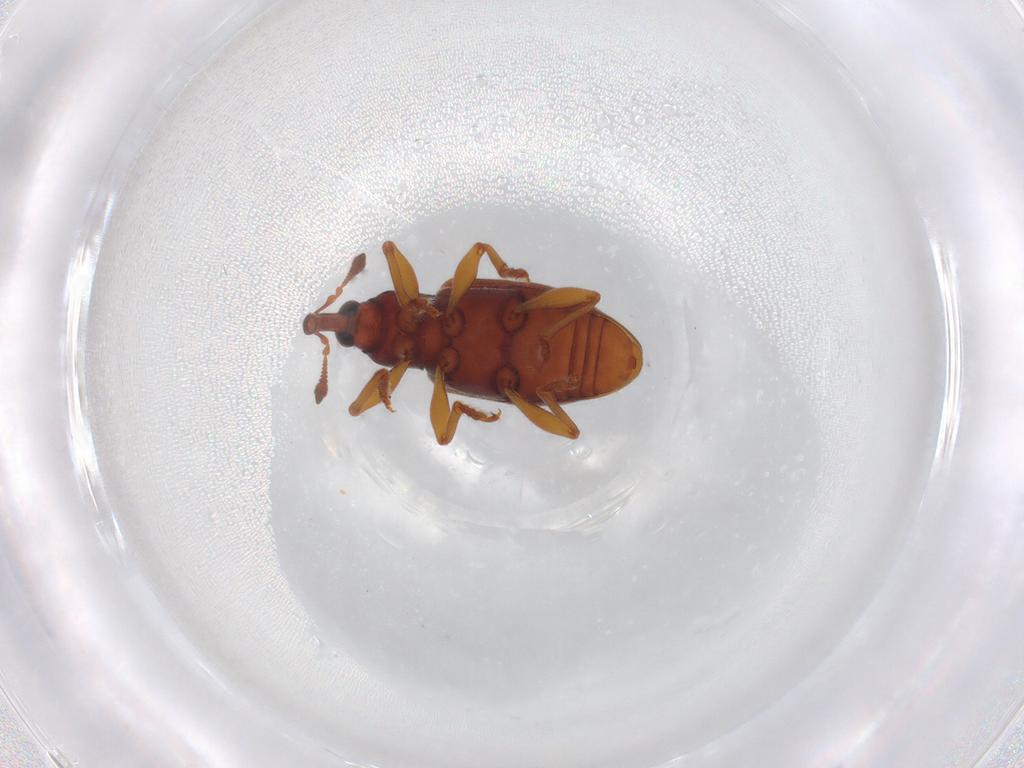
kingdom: Animalia
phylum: Arthropoda
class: Insecta
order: Coleoptera
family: Curculionidae
